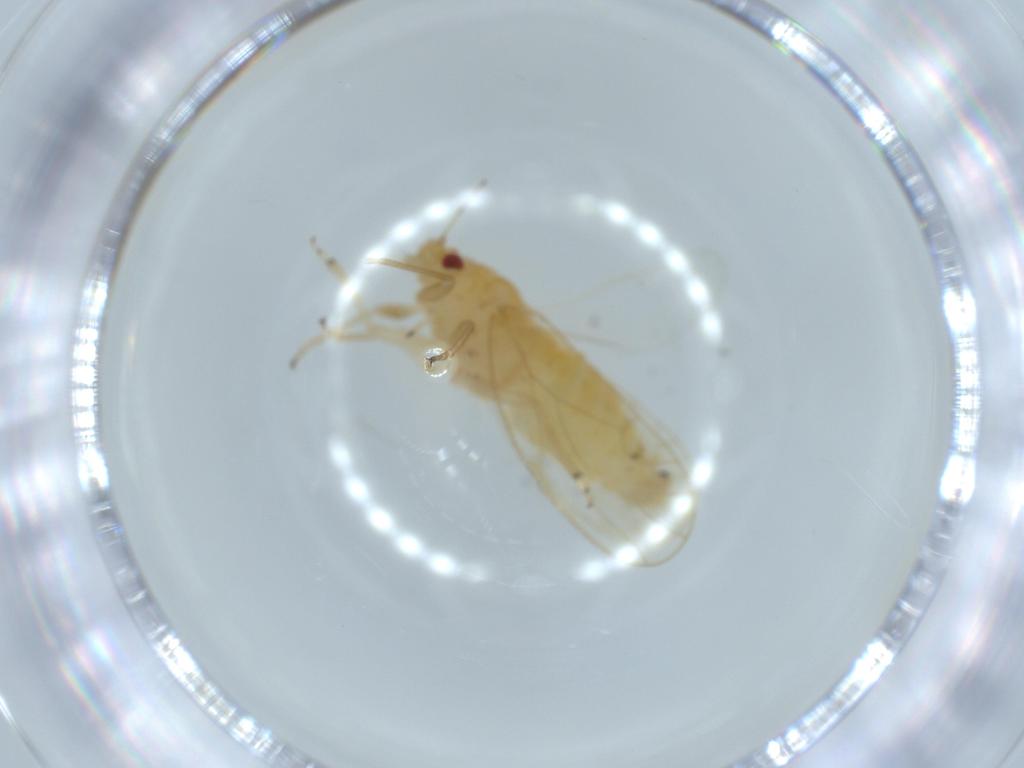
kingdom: Animalia
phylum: Arthropoda
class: Insecta
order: Hemiptera
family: Psyllidae
